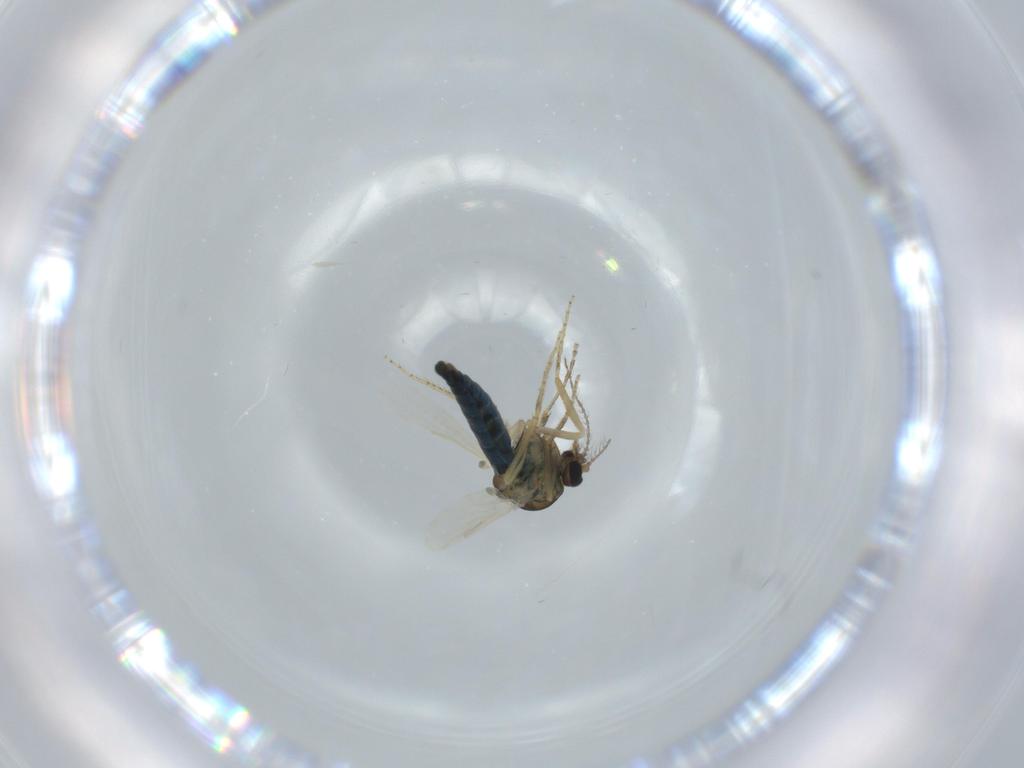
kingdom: Animalia
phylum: Arthropoda
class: Insecta
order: Diptera
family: Ceratopogonidae
